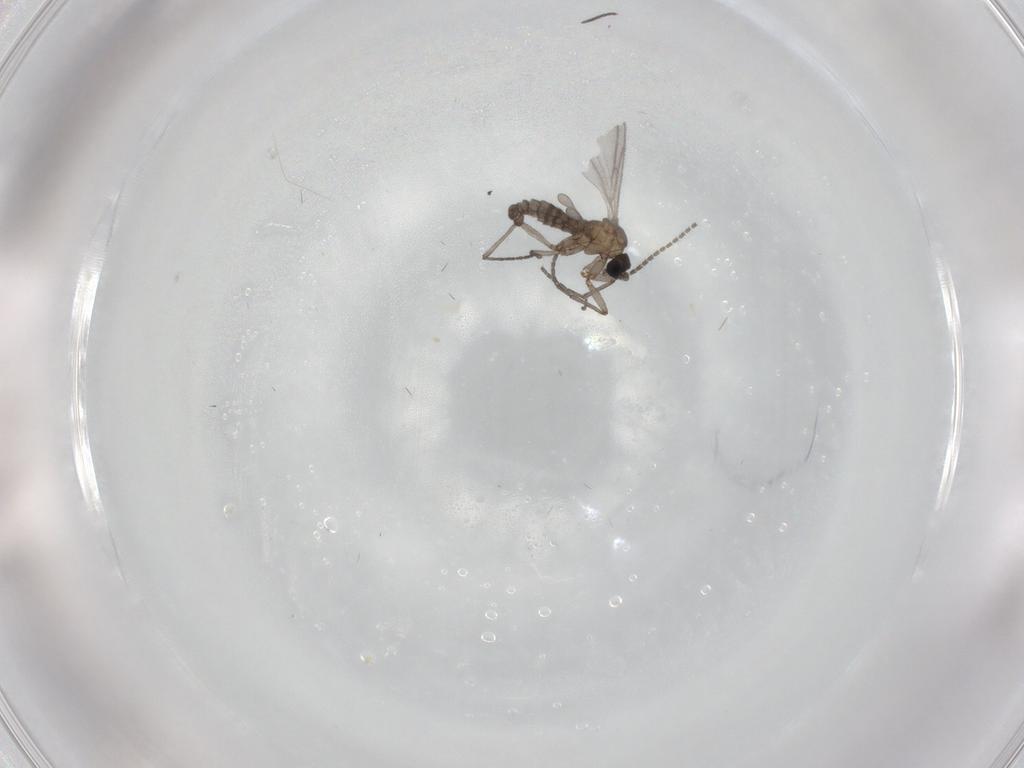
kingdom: Animalia
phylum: Arthropoda
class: Insecta
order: Diptera
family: Sciaridae
